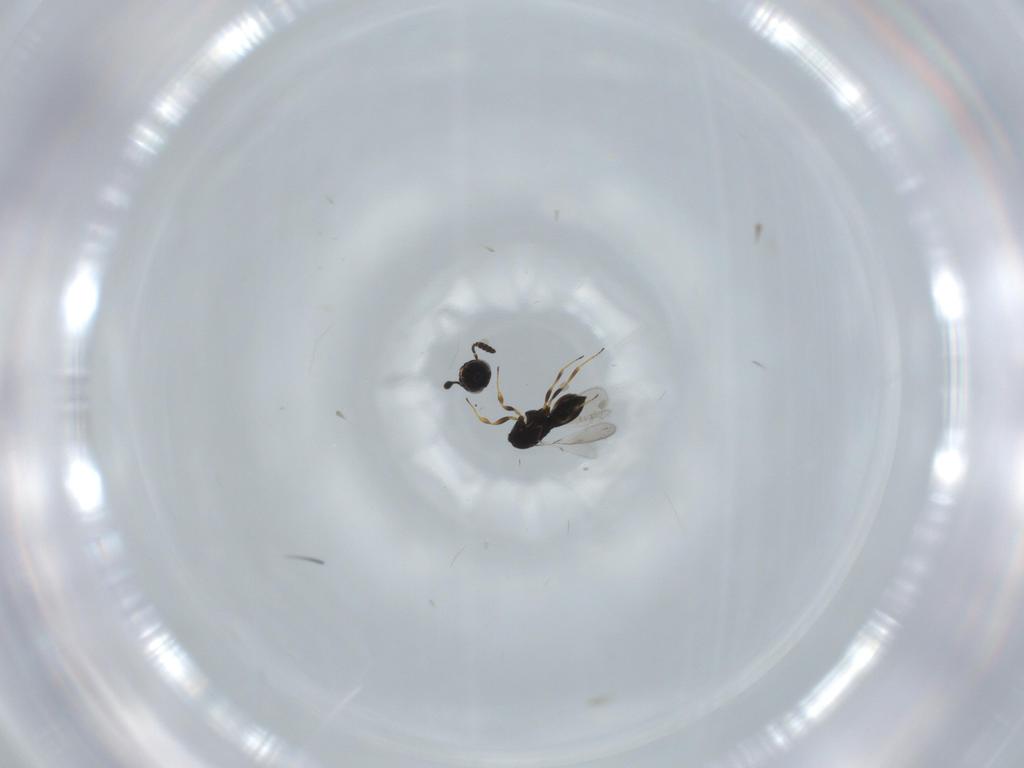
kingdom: Animalia
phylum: Arthropoda
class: Insecta
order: Hymenoptera
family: Scelionidae
